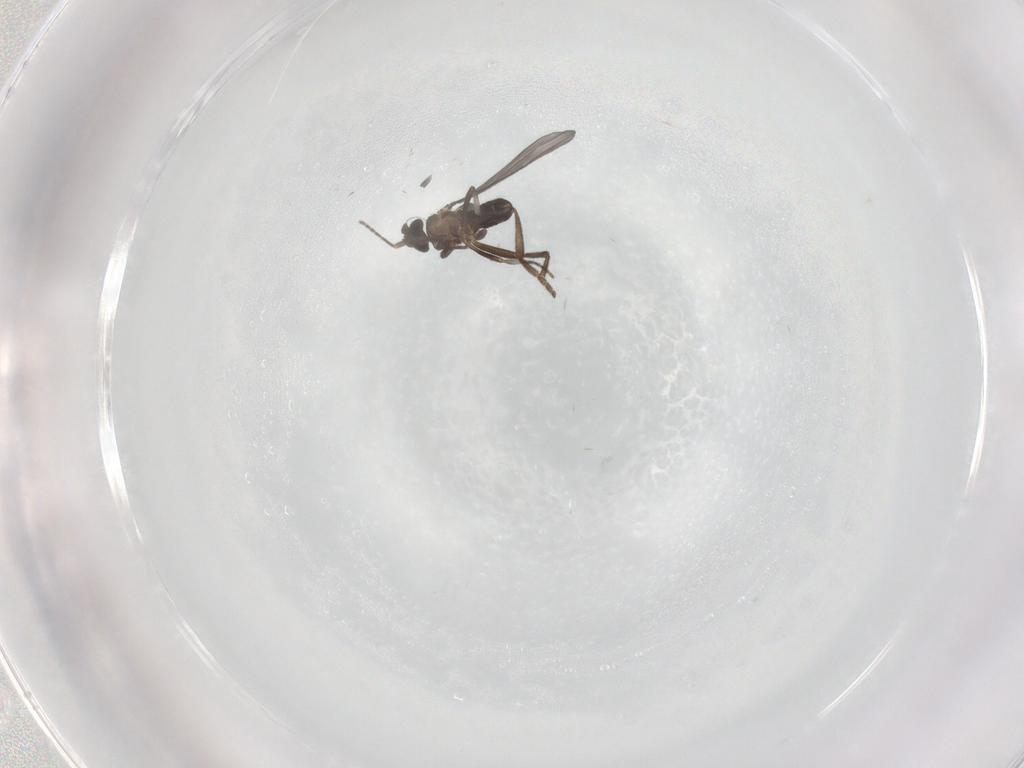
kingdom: Animalia
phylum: Arthropoda
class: Insecta
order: Diptera
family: Phoridae
